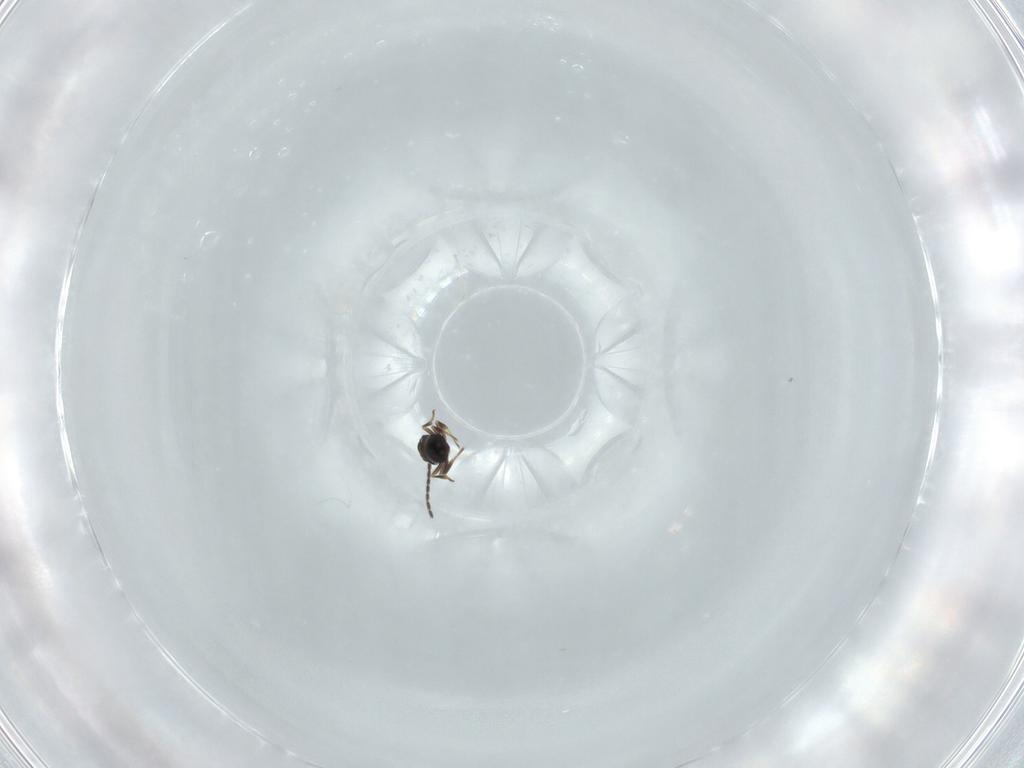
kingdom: Animalia
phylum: Arthropoda
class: Insecta
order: Hymenoptera
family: Scelionidae
